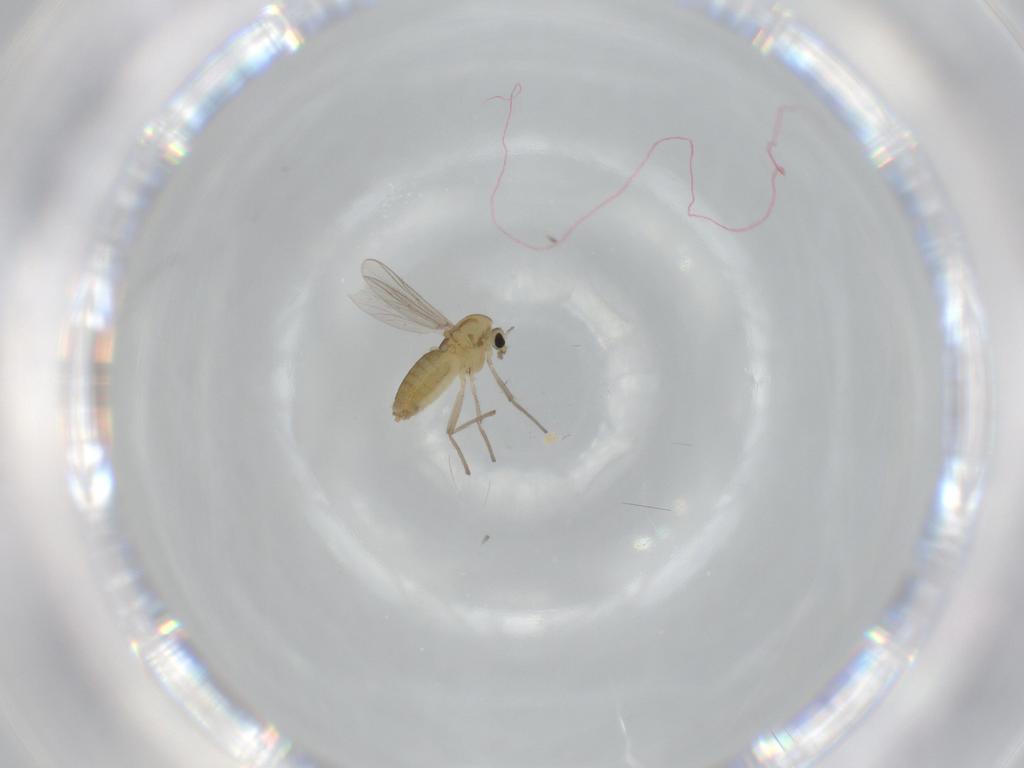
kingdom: Animalia
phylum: Arthropoda
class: Insecta
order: Diptera
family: Chironomidae
